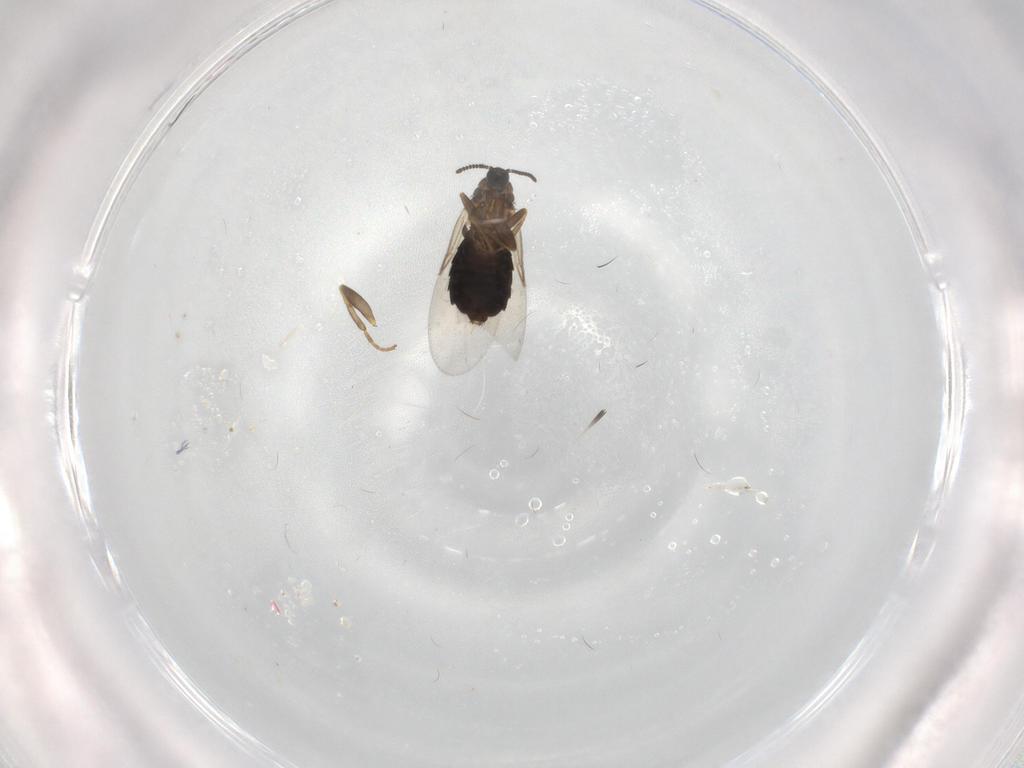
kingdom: Animalia
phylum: Arthropoda
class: Insecta
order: Diptera
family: Scatopsidae
